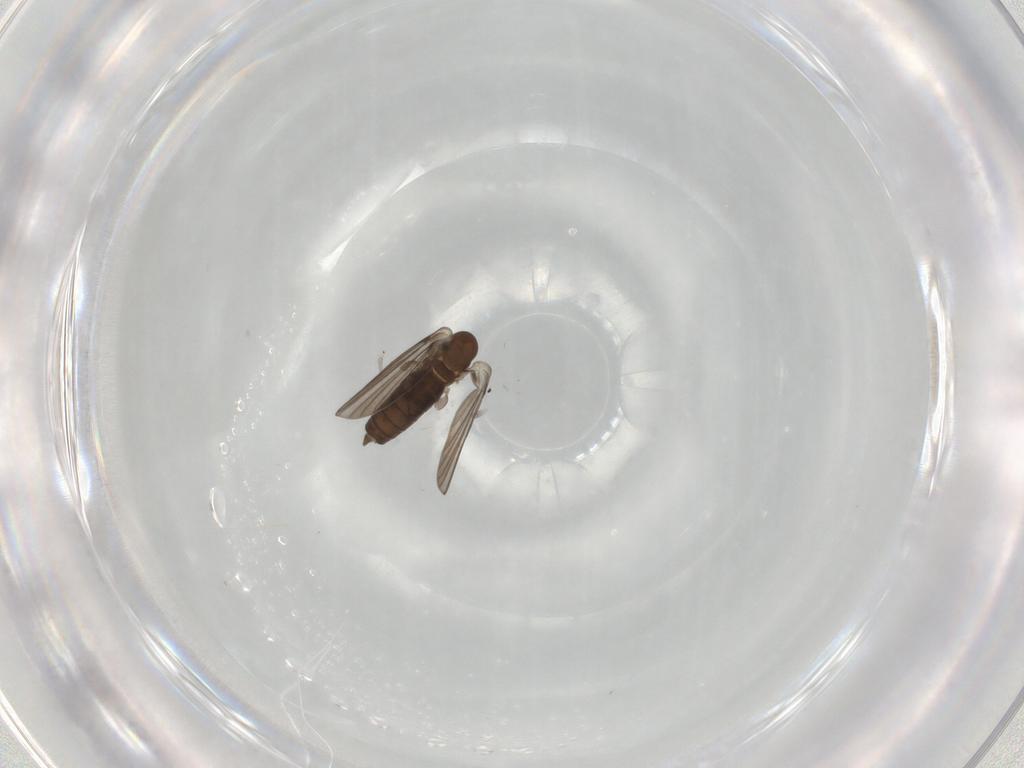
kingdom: Animalia
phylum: Arthropoda
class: Insecta
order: Diptera
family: Psychodidae
